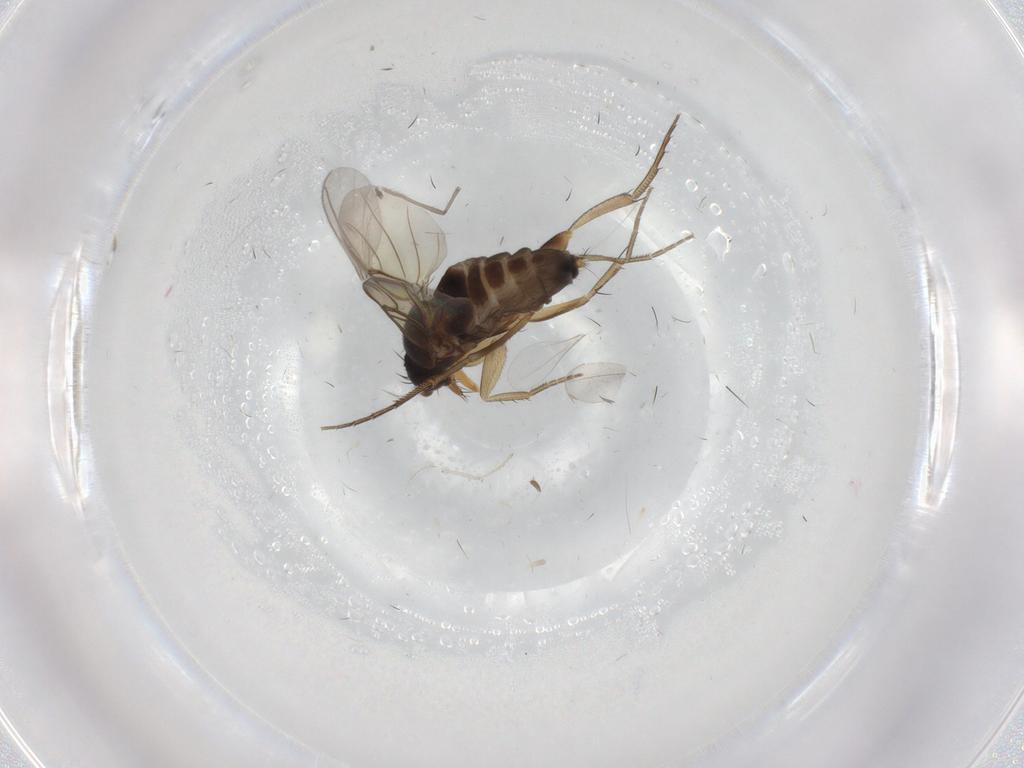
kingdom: Animalia
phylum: Arthropoda
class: Insecta
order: Diptera
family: Phoridae
